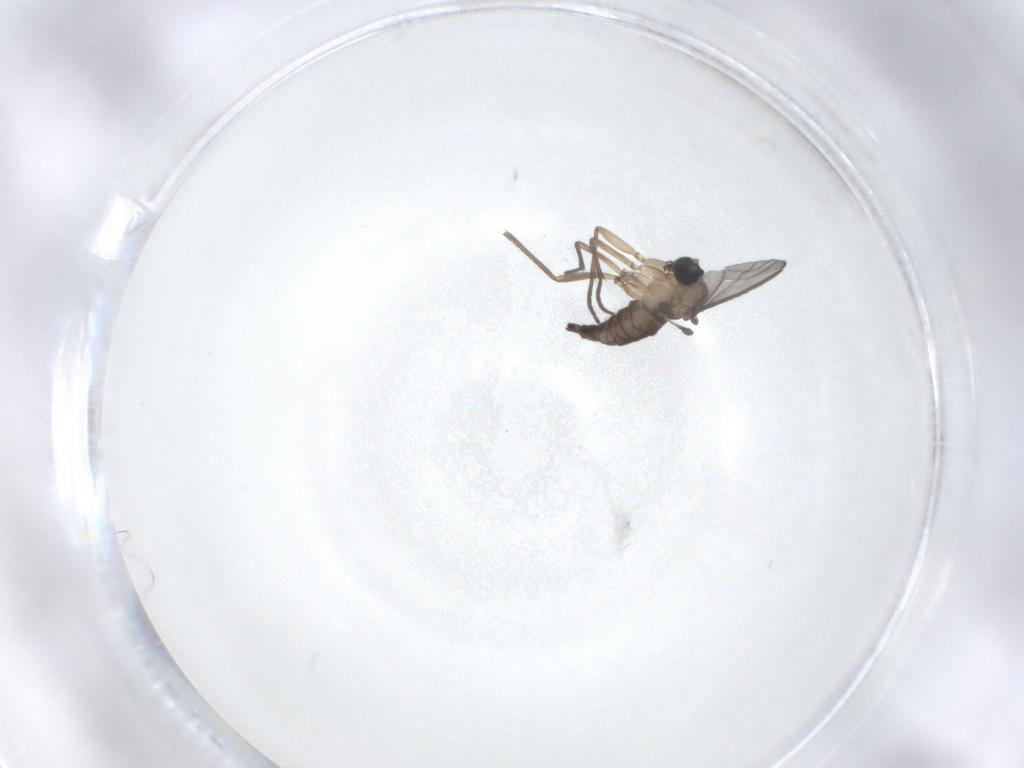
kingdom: Animalia
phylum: Arthropoda
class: Insecta
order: Diptera
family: Sciaridae
